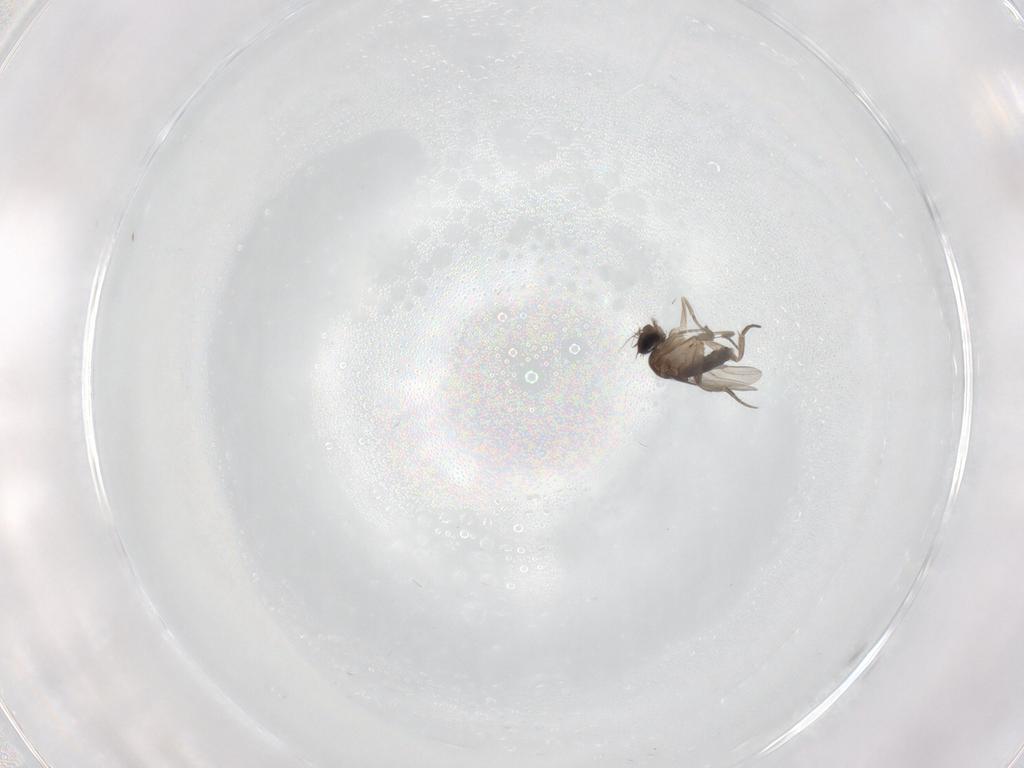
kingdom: Animalia
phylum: Arthropoda
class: Insecta
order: Diptera
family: Phoridae
